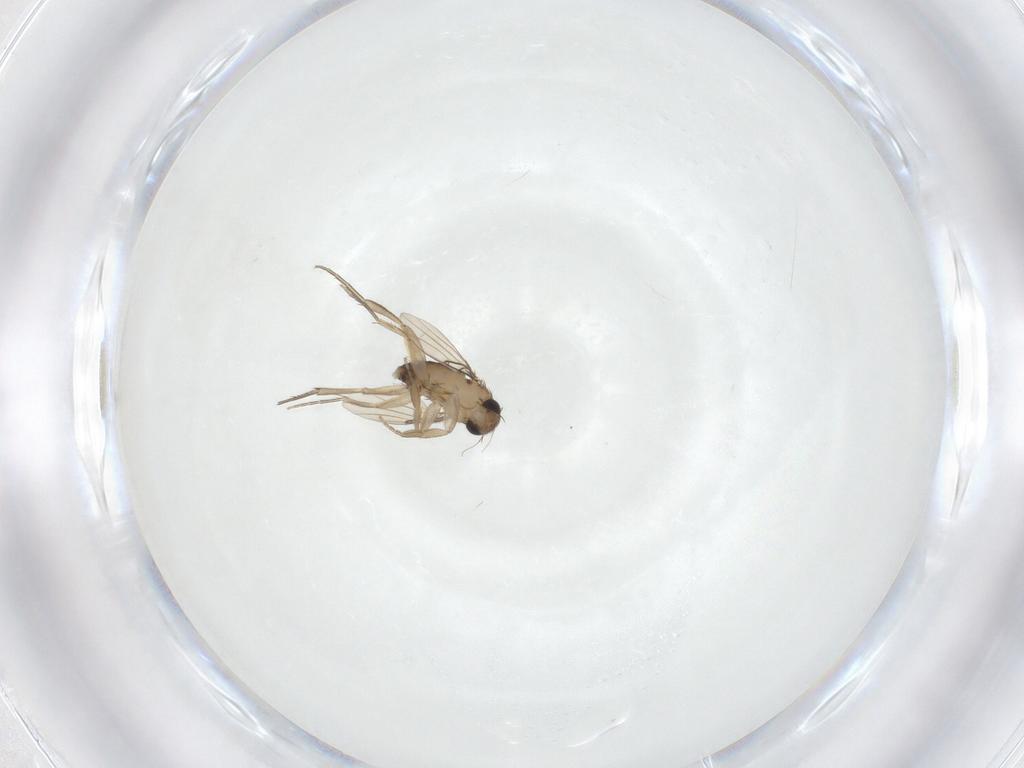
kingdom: Animalia
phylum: Arthropoda
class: Insecta
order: Diptera
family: Phoridae
